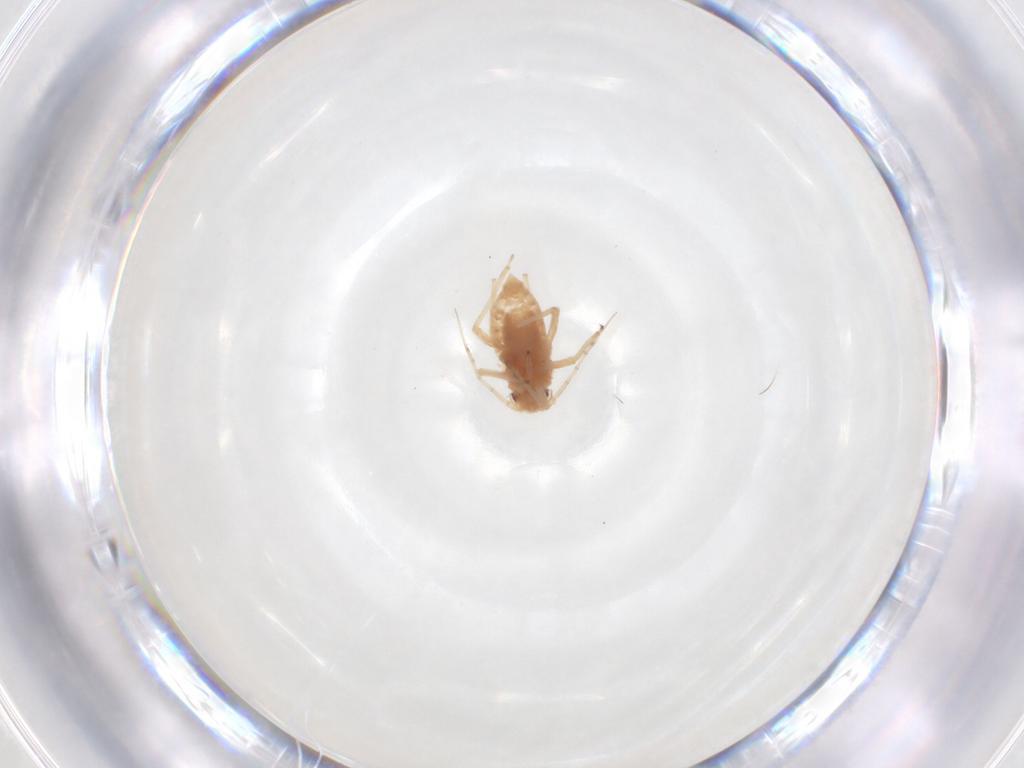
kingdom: Animalia
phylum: Arthropoda
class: Insecta
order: Hemiptera
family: Aphididae
